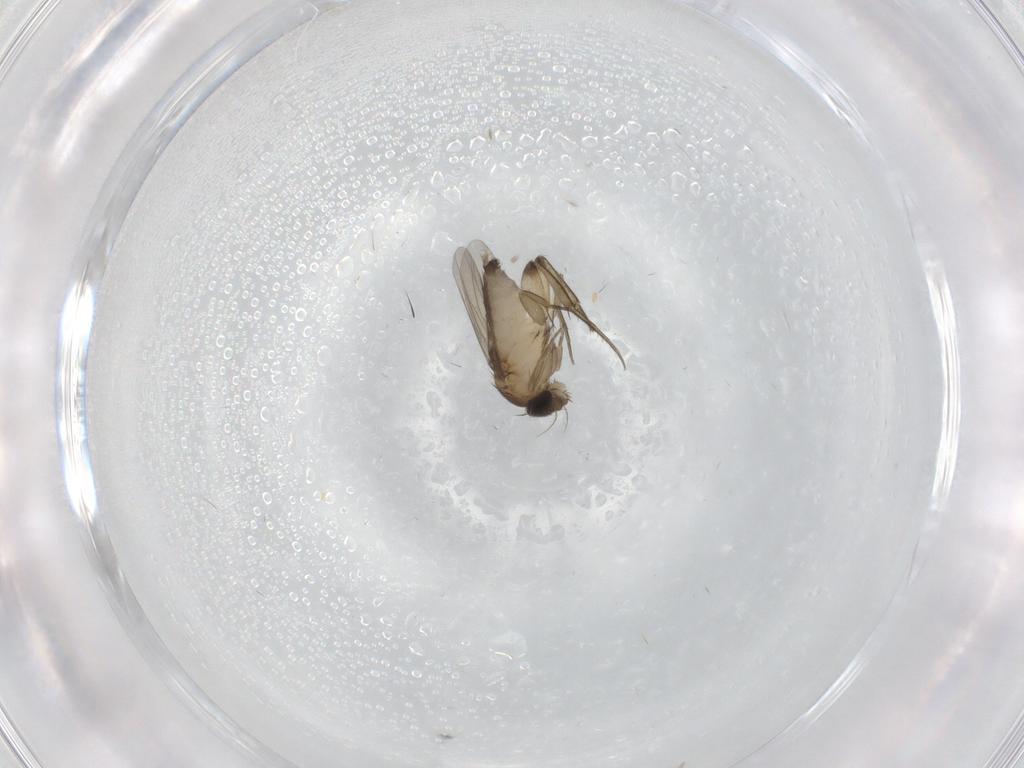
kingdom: Animalia
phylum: Arthropoda
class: Insecta
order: Diptera
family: Phoridae
